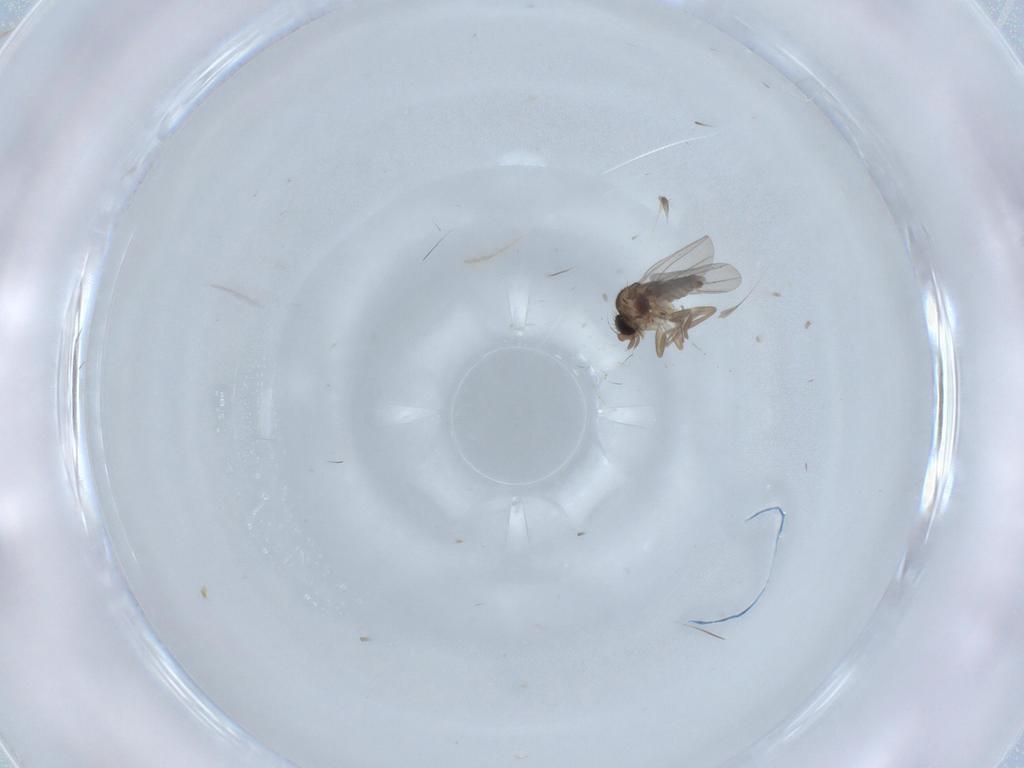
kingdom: Animalia
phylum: Arthropoda
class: Insecta
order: Diptera
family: Phoridae
